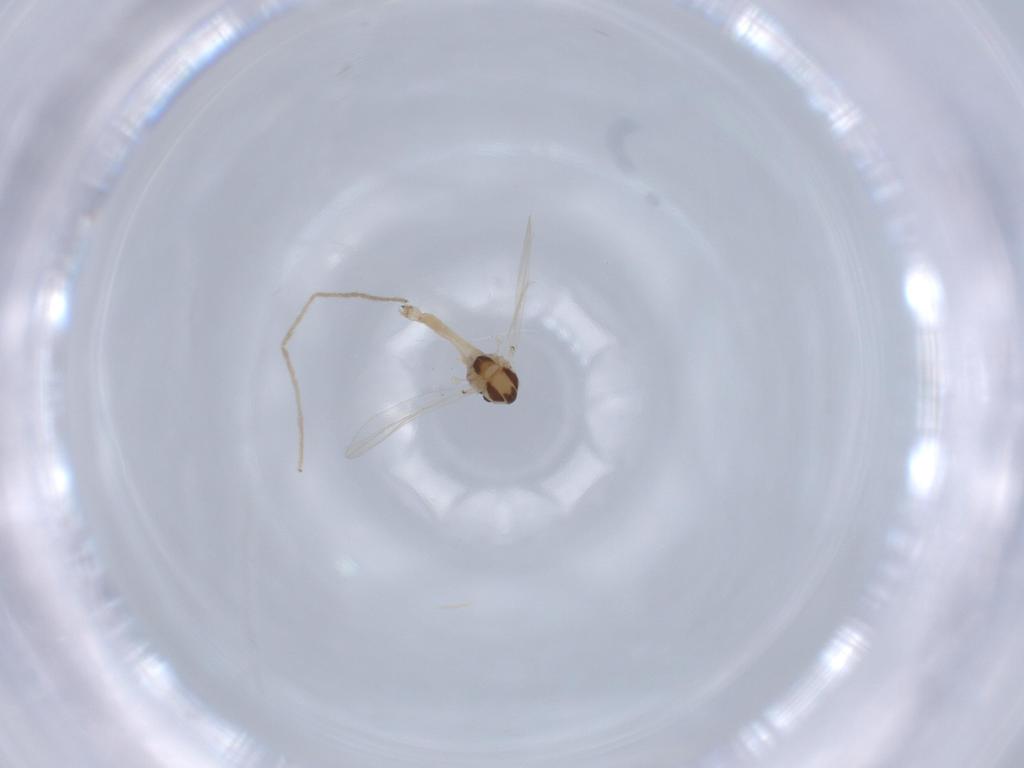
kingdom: Animalia
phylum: Arthropoda
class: Insecta
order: Diptera
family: Chironomidae
